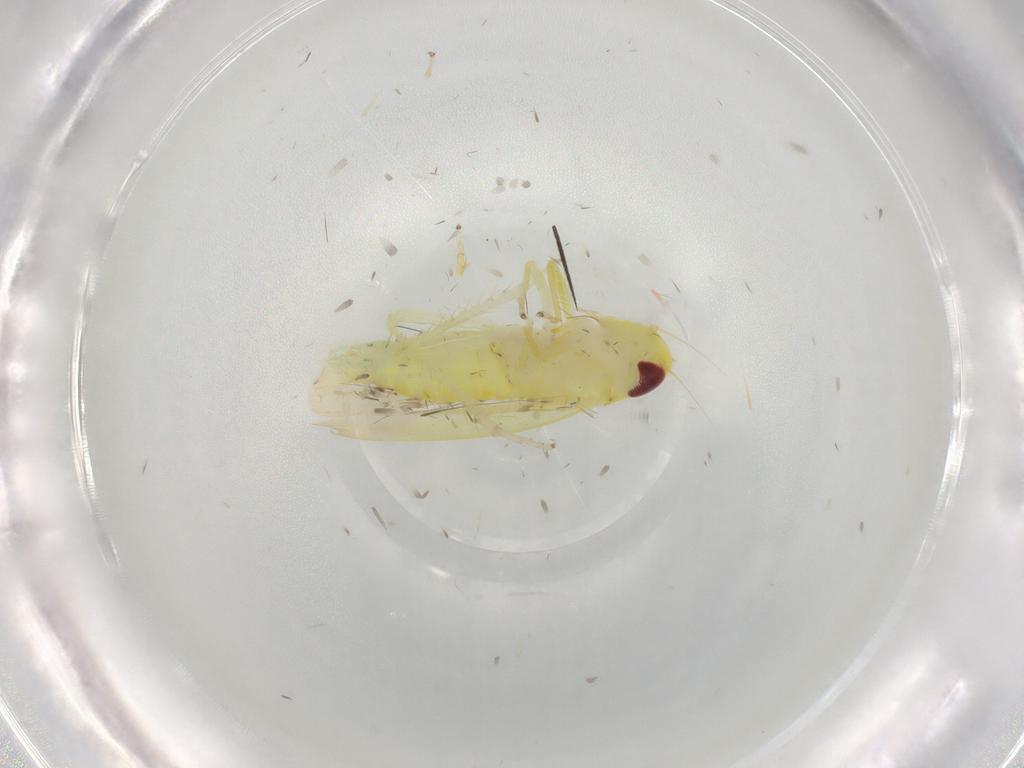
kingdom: Animalia
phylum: Arthropoda
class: Insecta
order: Hemiptera
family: Cicadellidae
